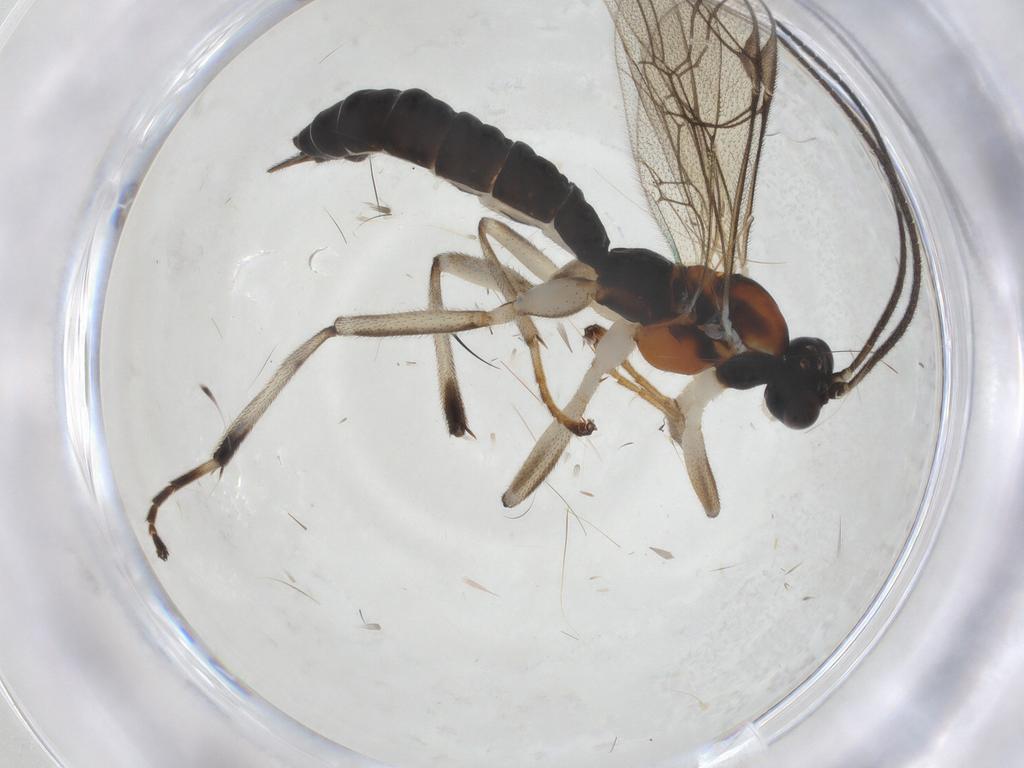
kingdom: Animalia
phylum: Arthropoda
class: Insecta
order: Hymenoptera
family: Ichneumonidae
